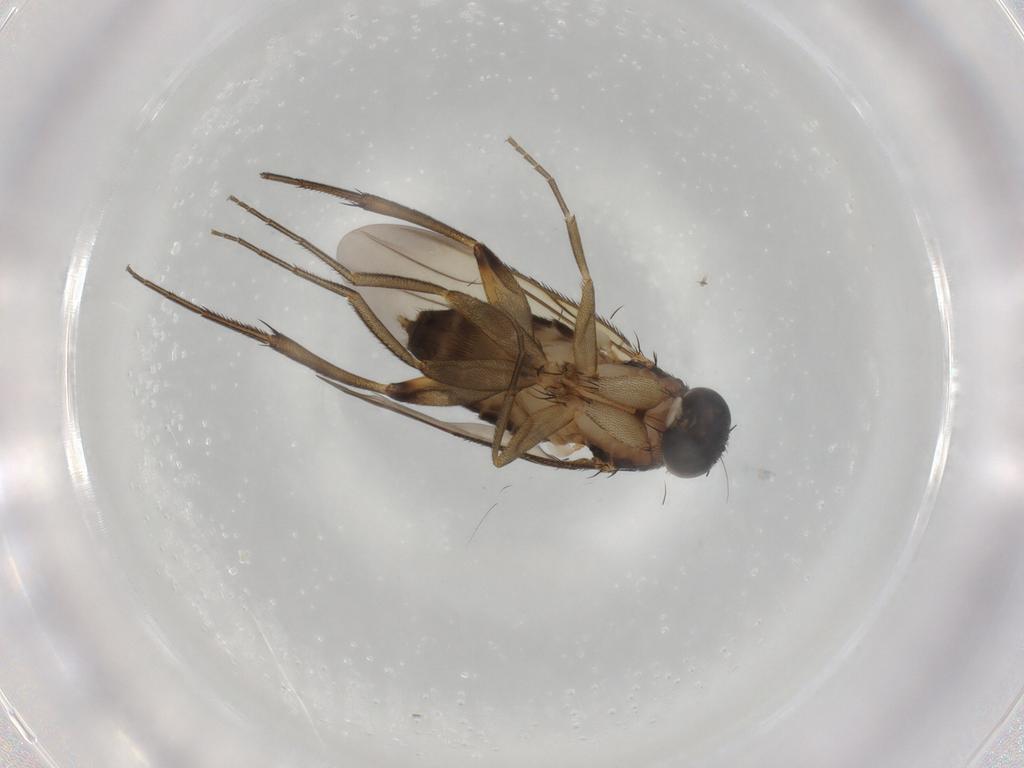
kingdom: Animalia
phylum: Arthropoda
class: Insecta
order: Diptera
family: Phoridae
